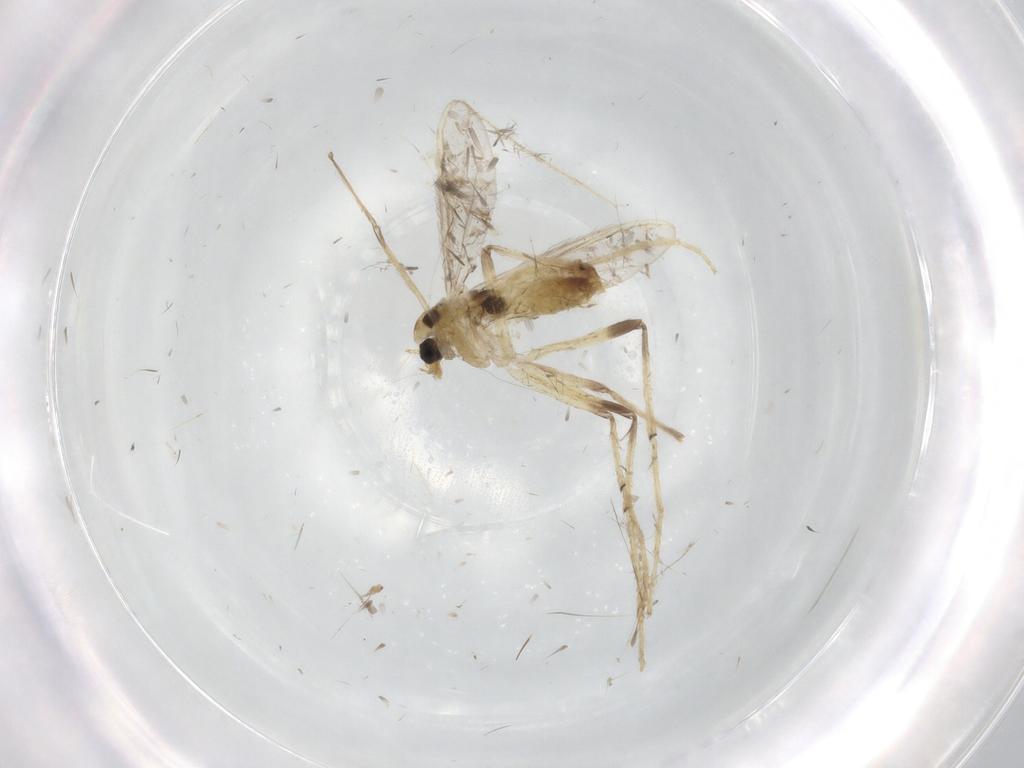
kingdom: Animalia
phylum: Arthropoda
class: Insecta
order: Diptera
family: Chironomidae
